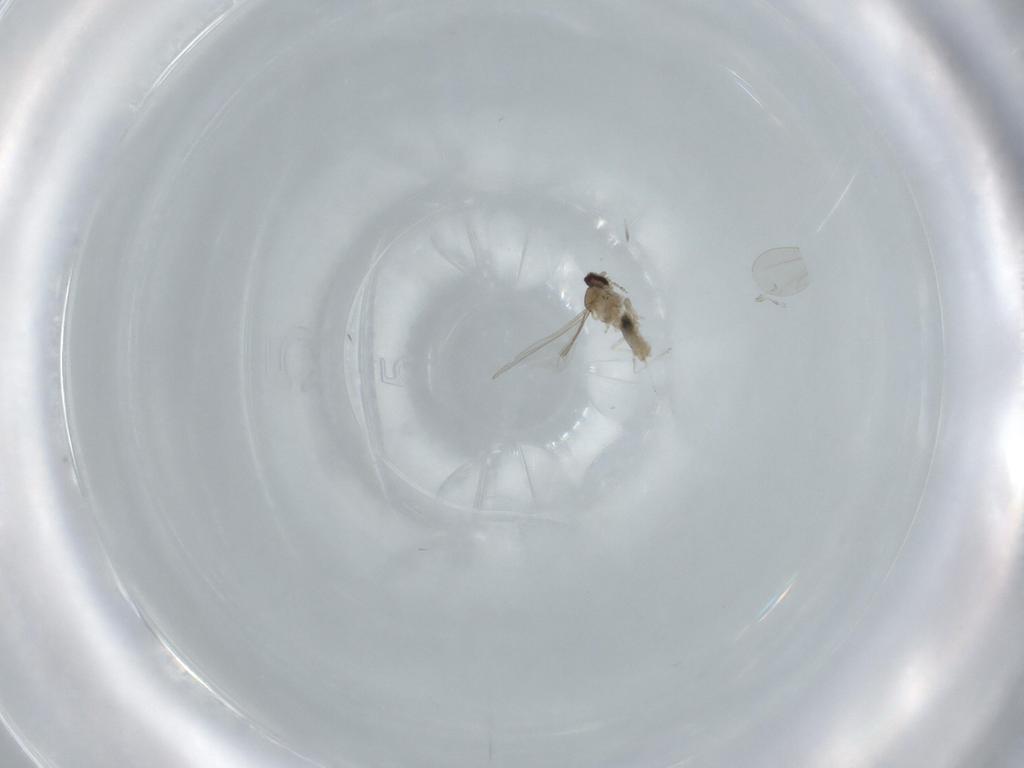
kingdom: Animalia
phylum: Arthropoda
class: Insecta
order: Diptera
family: Cecidomyiidae
